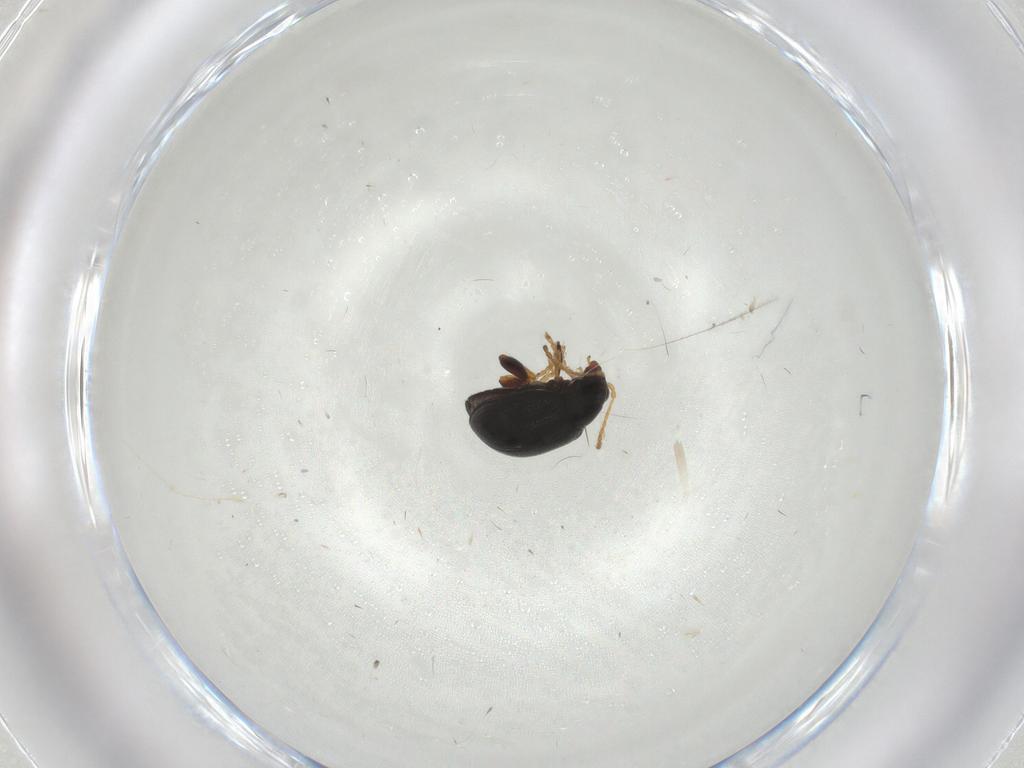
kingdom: Animalia
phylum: Arthropoda
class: Insecta
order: Coleoptera
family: Chrysomelidae
